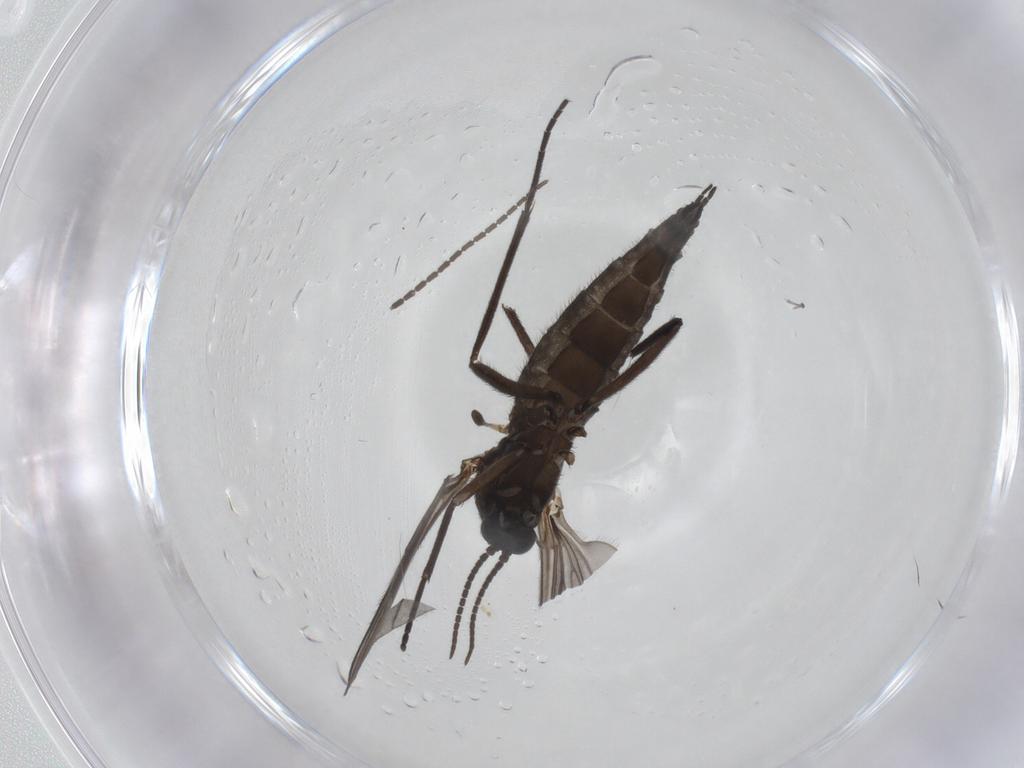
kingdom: Animalia
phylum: Arthropoda
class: Insecta
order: Diptera
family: Sciaridae
